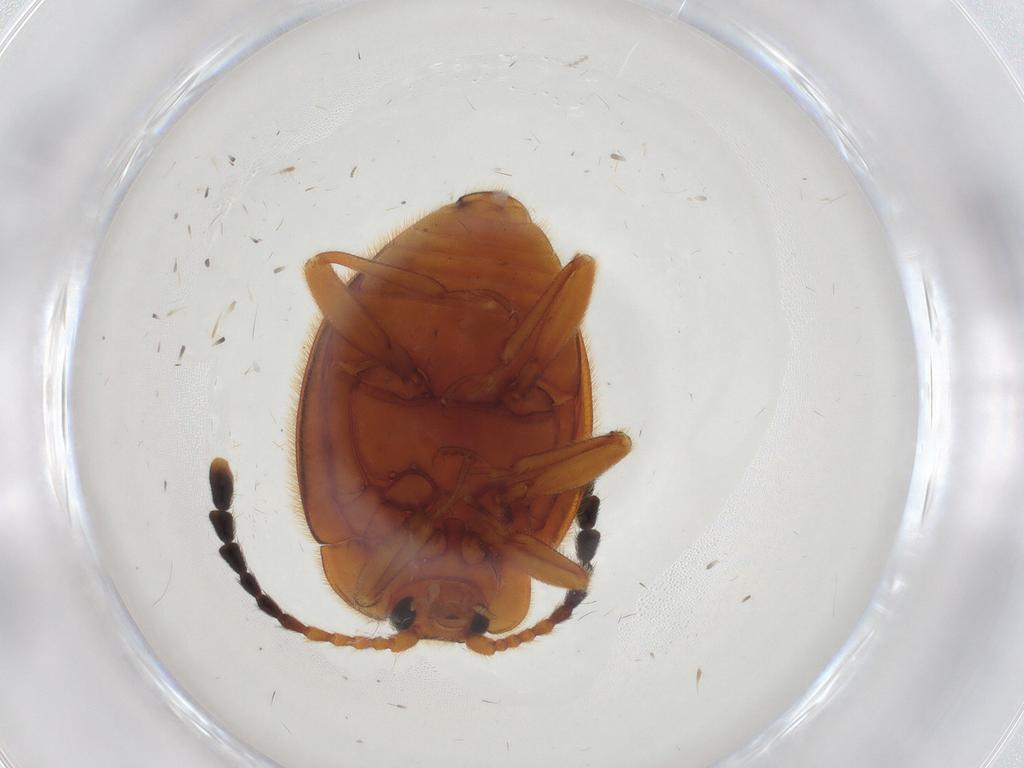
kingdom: Animalia
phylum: Arthropoda
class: Insecta
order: Coleoptera
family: Endomychidae
